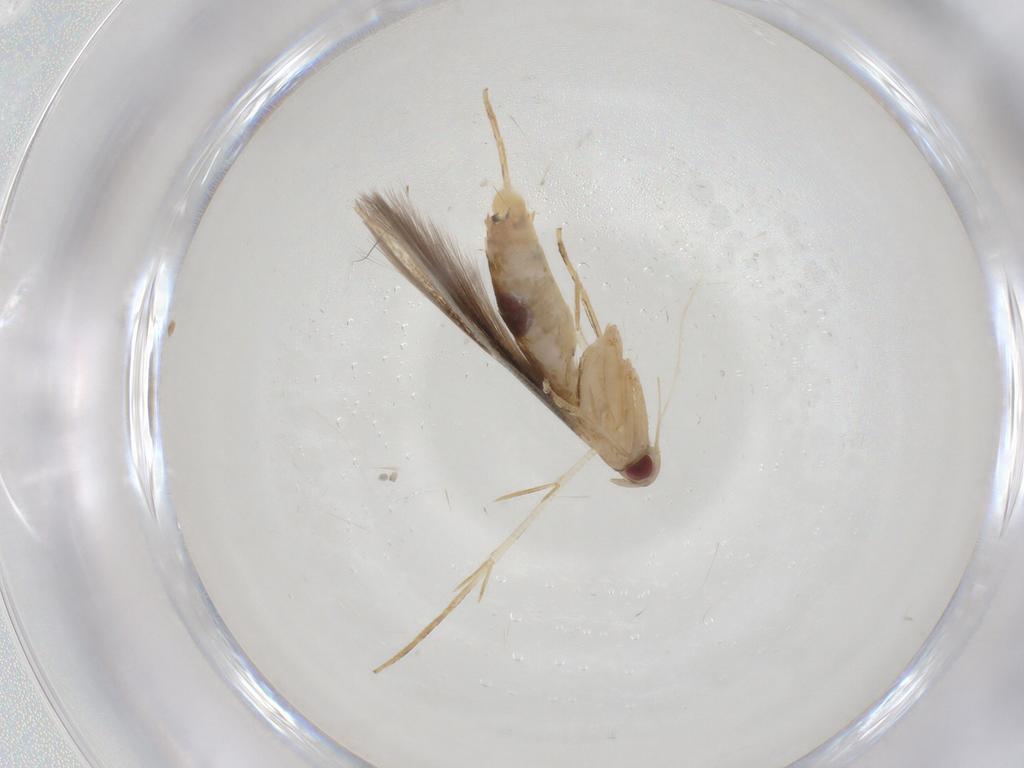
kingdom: Animalia
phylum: Arthropoda
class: Insecta
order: Lepidoptera
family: Cosmopterigidae
